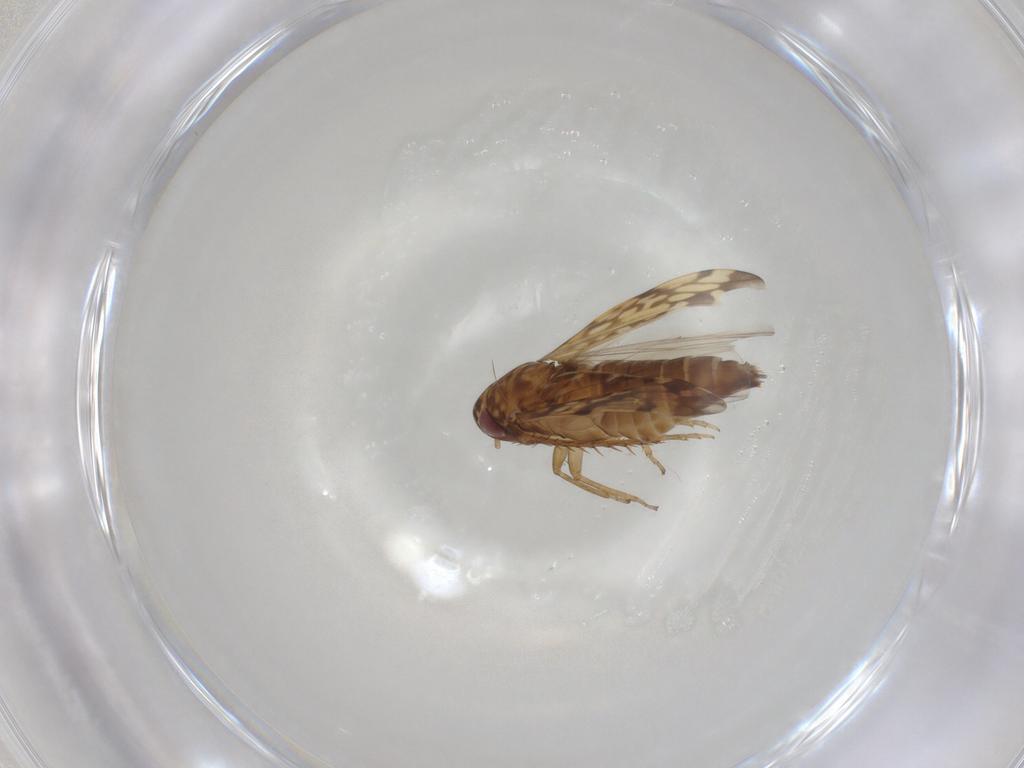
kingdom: Animalia
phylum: Arthropoda
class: Insecta
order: Hemiptera
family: Cicadellidae
